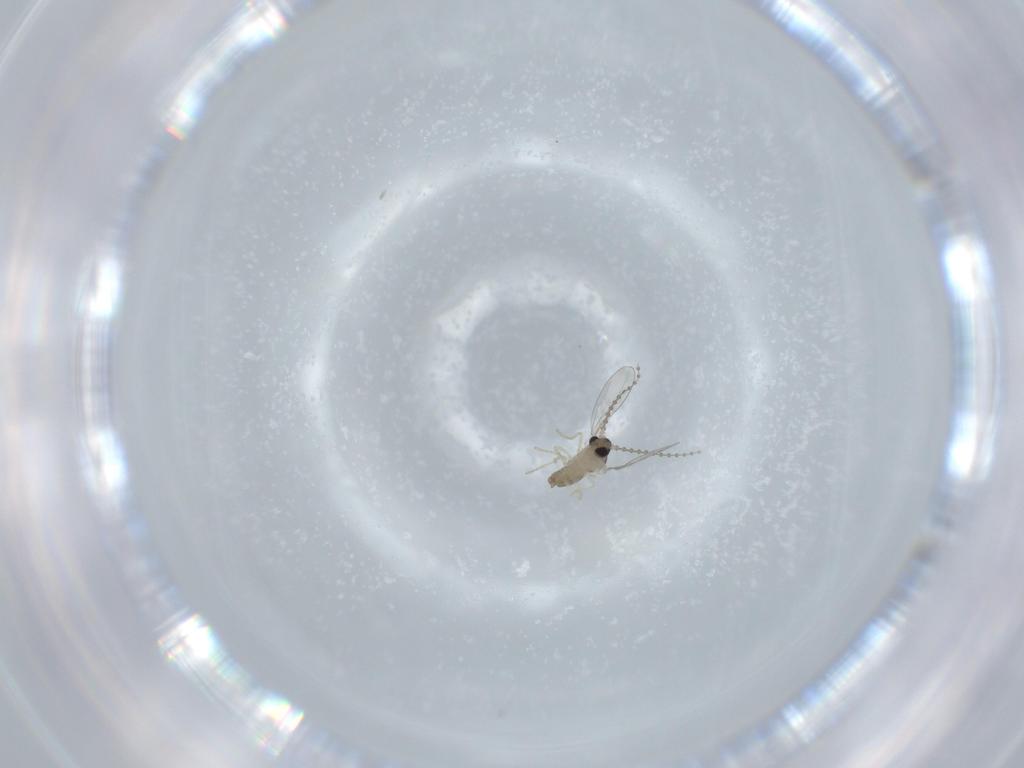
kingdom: Animalia
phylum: Arthropoda
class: Insecta
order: Diptera
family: Cecidomyiidae
